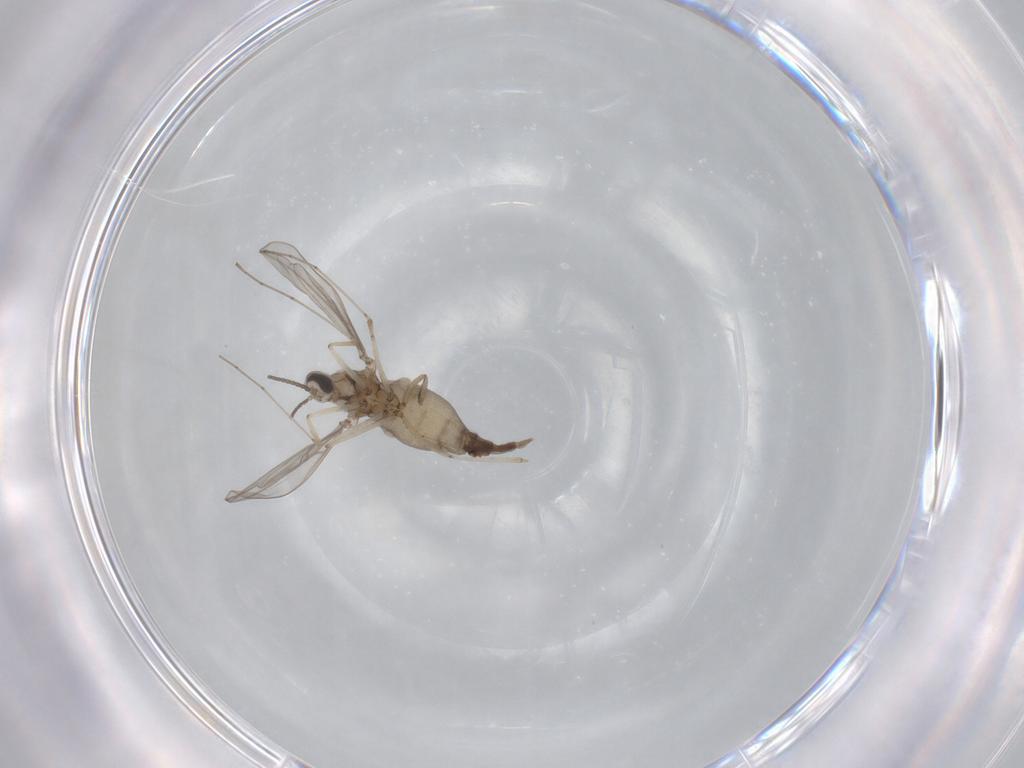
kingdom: Animalia
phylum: Arthropoda
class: Insecta
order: Diptera
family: Cecidomyiidae
